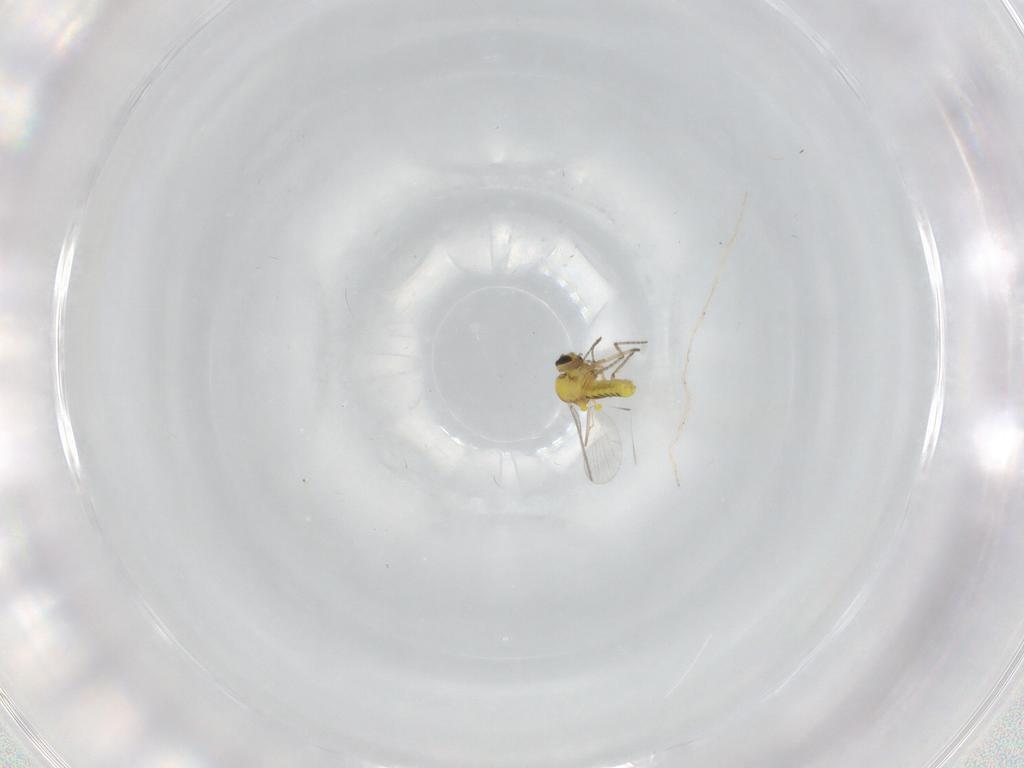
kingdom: Animalia
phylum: Arthropoda
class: Insecta
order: Diptera
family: Ceratopogonidae
